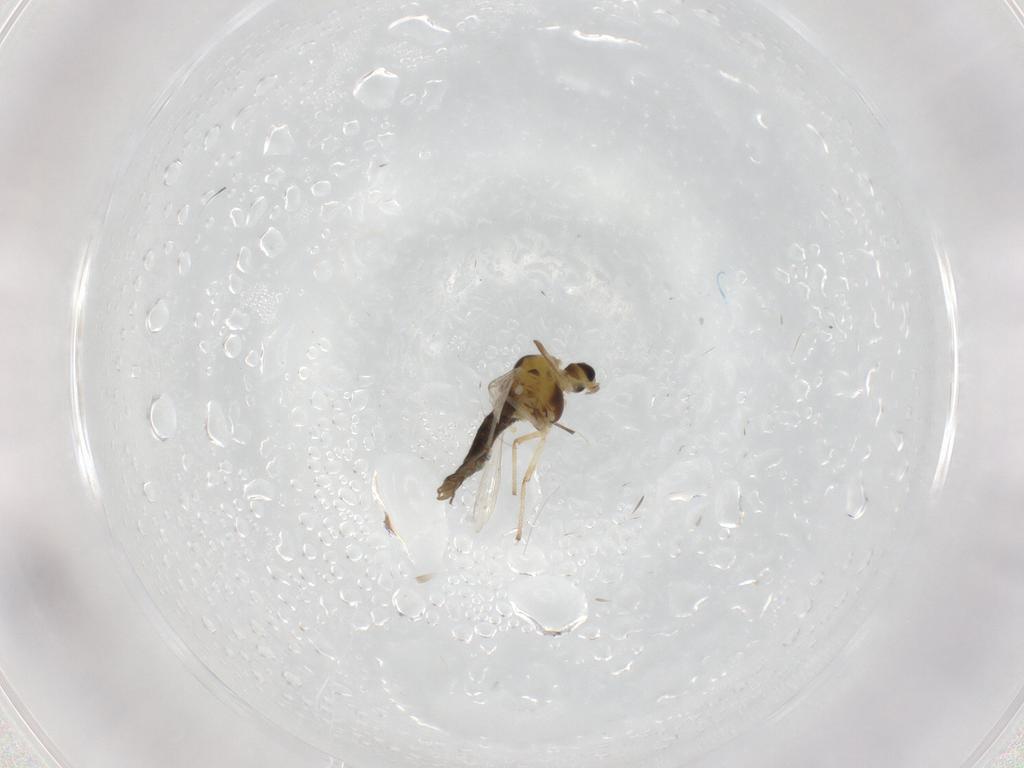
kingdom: Animalia
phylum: Arthropoda
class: Insecta
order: Diptera
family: Chironomidae
